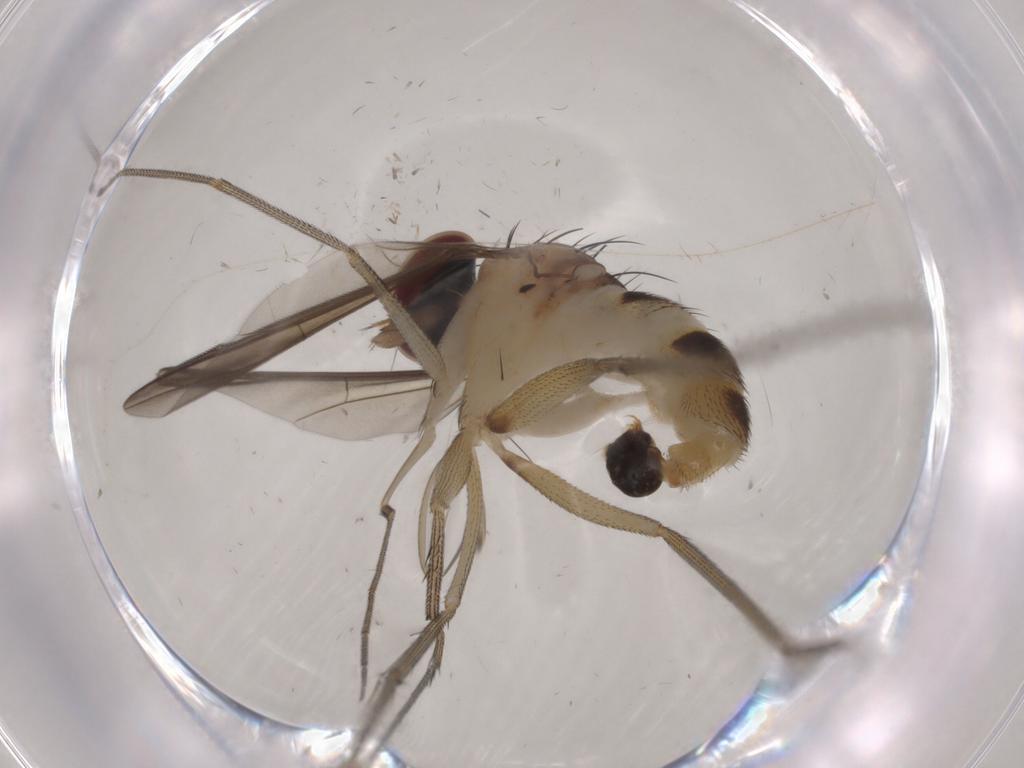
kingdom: Animalia
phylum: Arthropoda
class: Insecta
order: Diptera
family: Dolichopodidae
